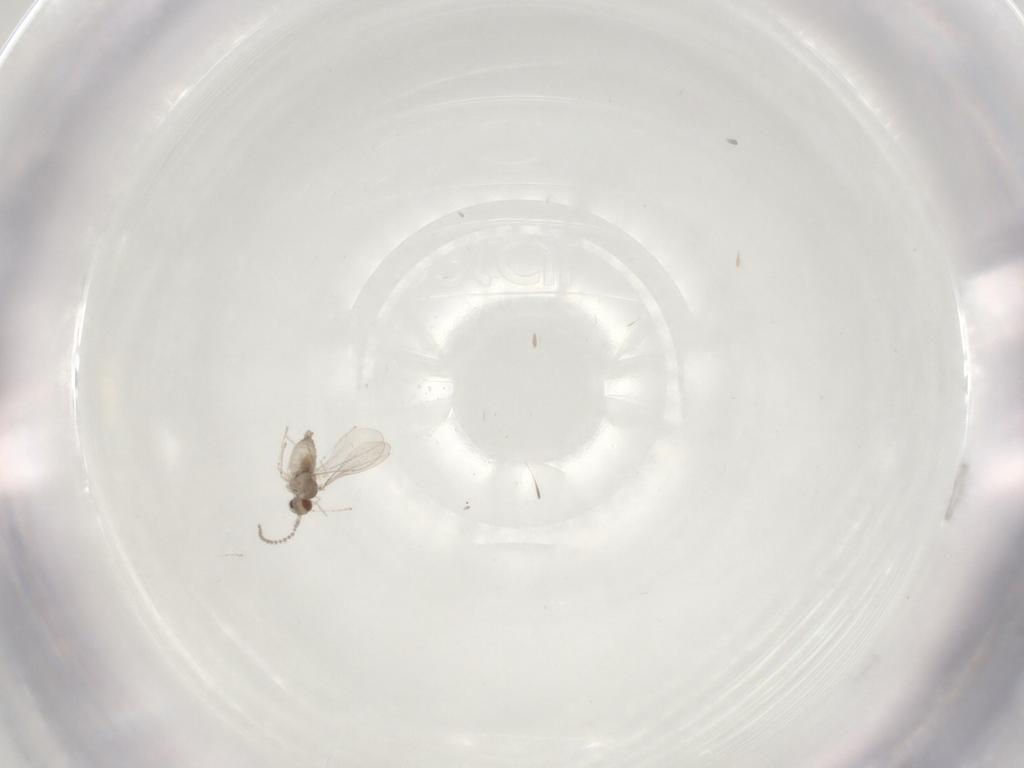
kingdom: Animalia
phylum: Arthropoda
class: Insecta
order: Diptera
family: Cecidomyiidae
